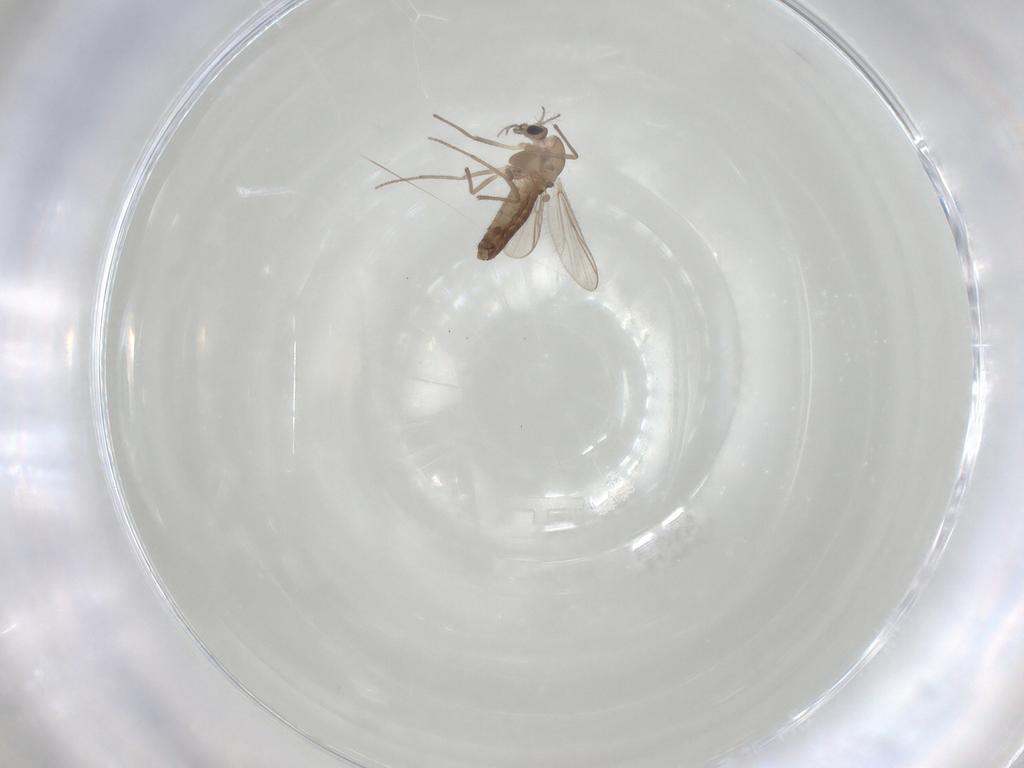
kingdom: Animalia
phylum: Arthropoda
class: Insecta
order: Diptera
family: Chironomidae
